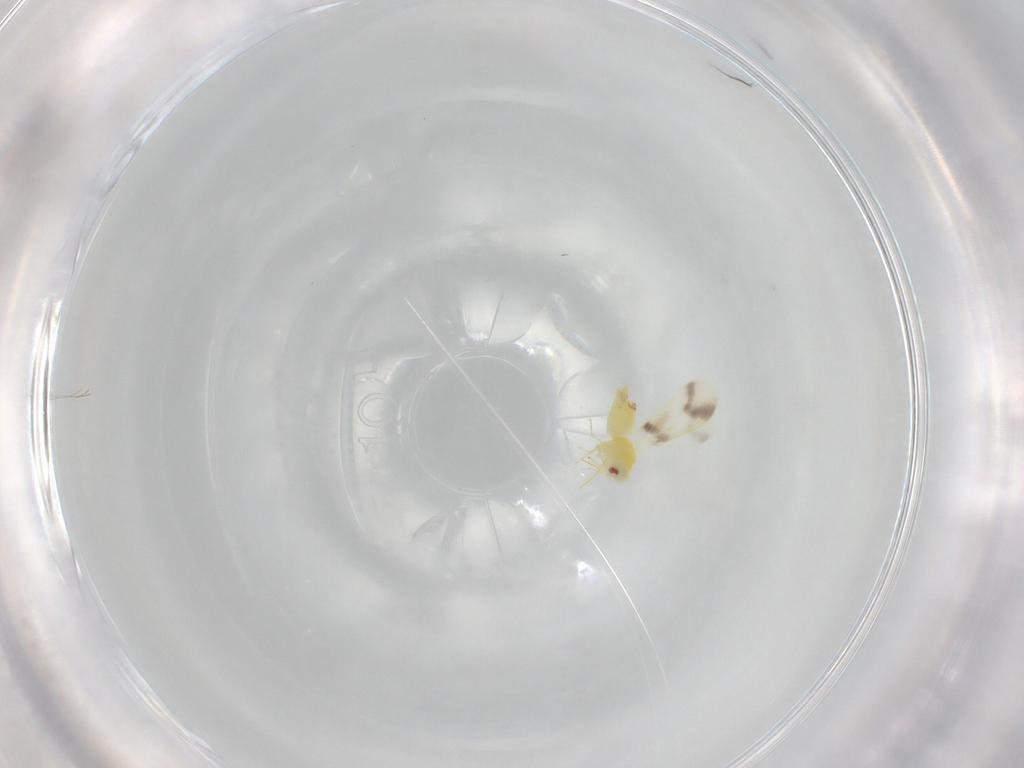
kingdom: Animalia
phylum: Arthropoda
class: Insecta
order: Hemiptera
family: Aleyrodidae
